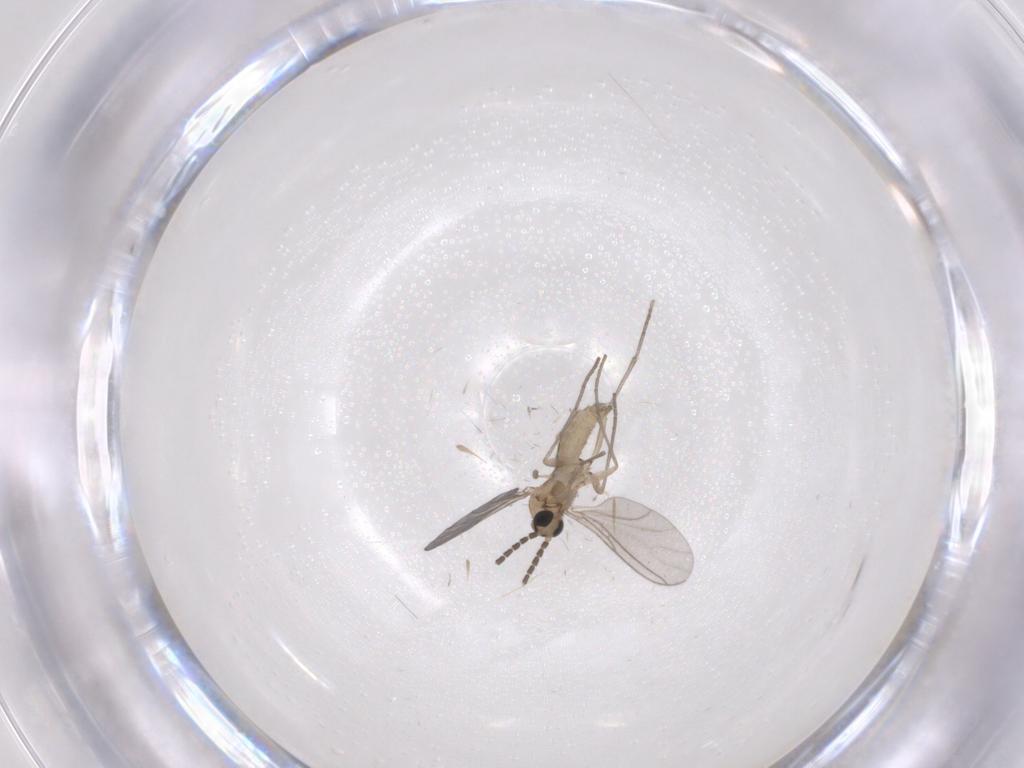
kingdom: Animalia
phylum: Arthropoda
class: Insecta
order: Diptera
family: Sciaridae
